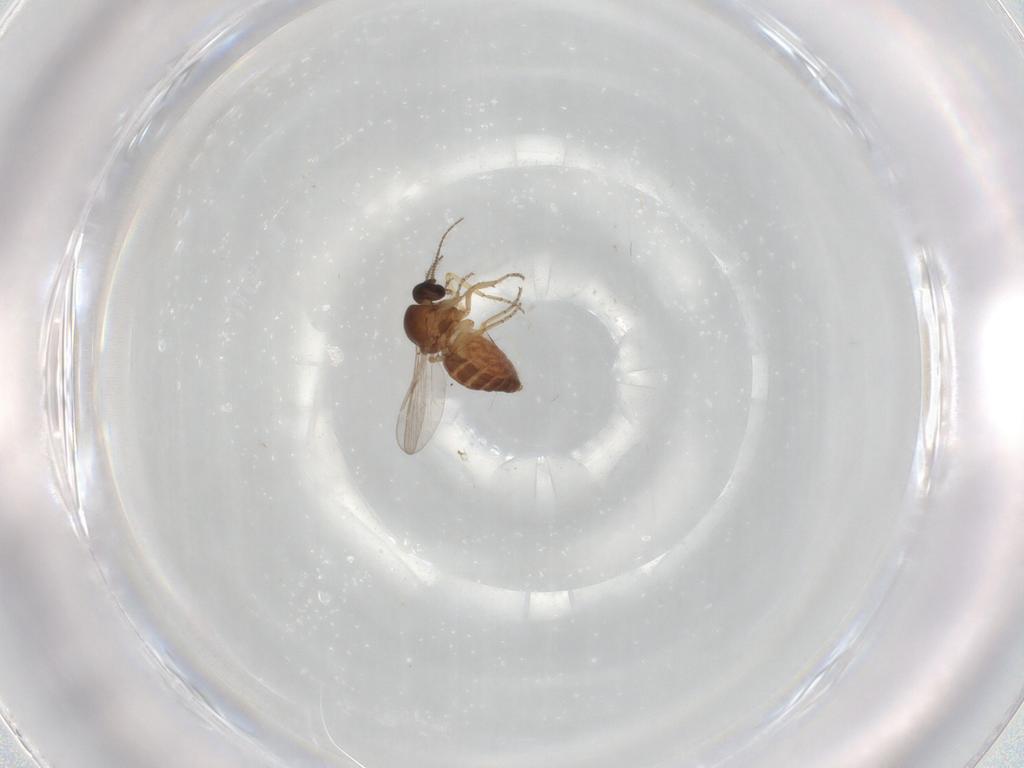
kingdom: Animalia
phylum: Arthropoda
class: Insecta
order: Diptera
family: Ceratopogonidae
